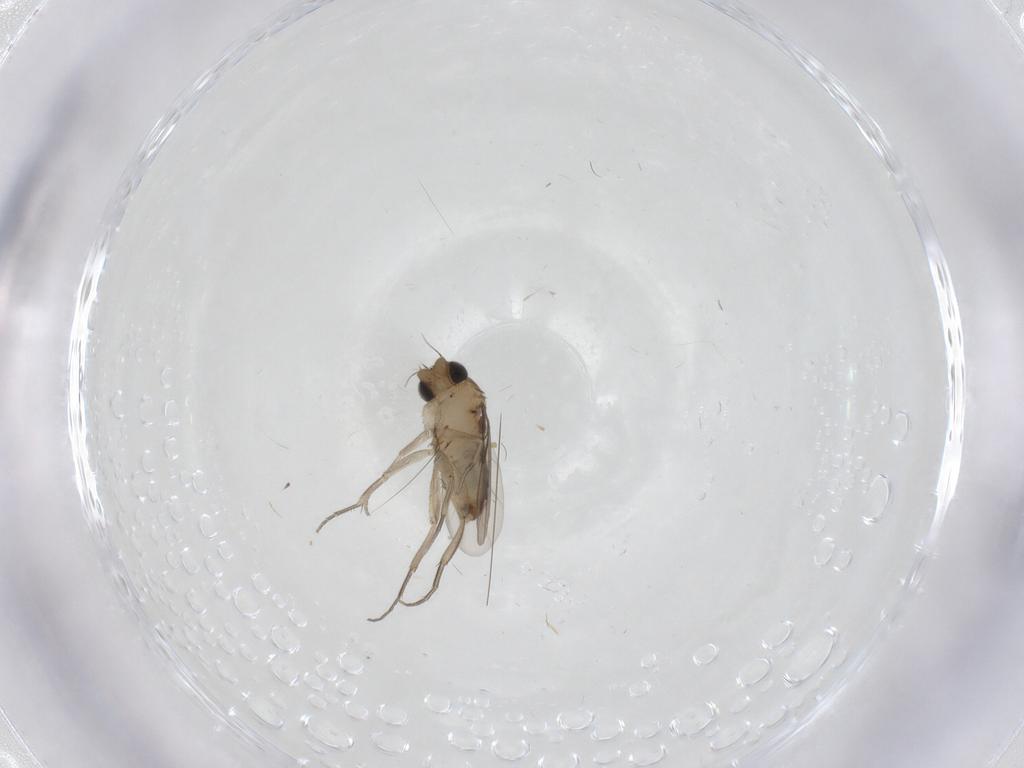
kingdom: Animalia
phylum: Arthropoda
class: Insecta
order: Diptera
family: Phoridae
